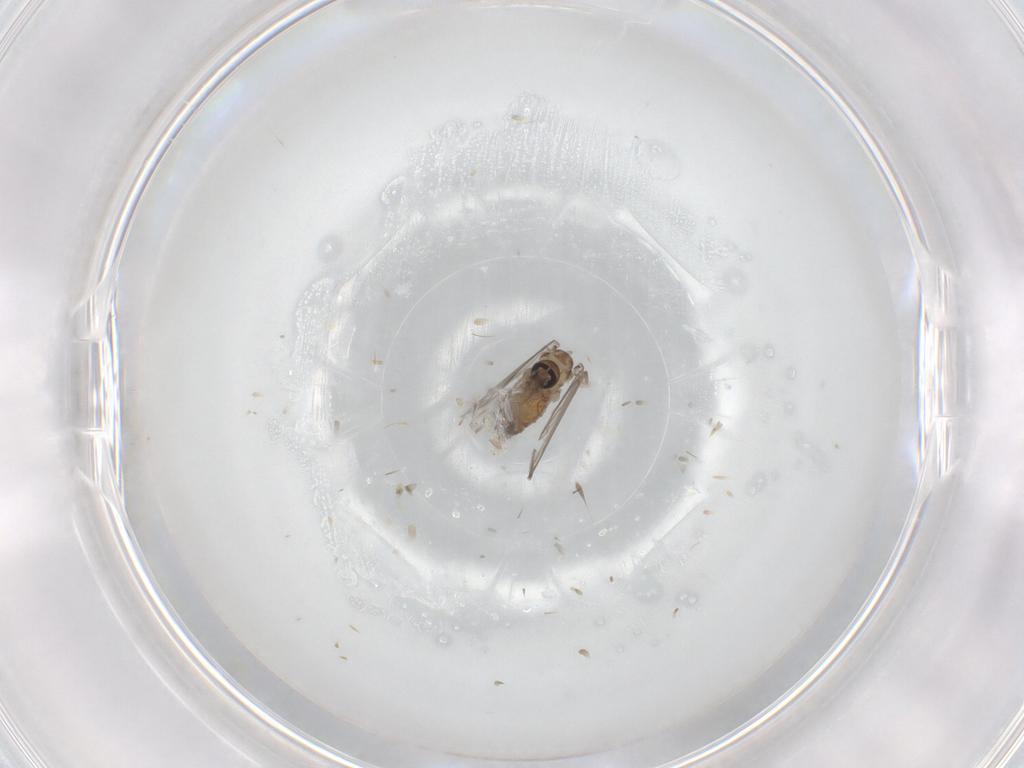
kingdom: Animalia
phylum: Arthropoda
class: Insecta
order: Diptera
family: Psychodidae
